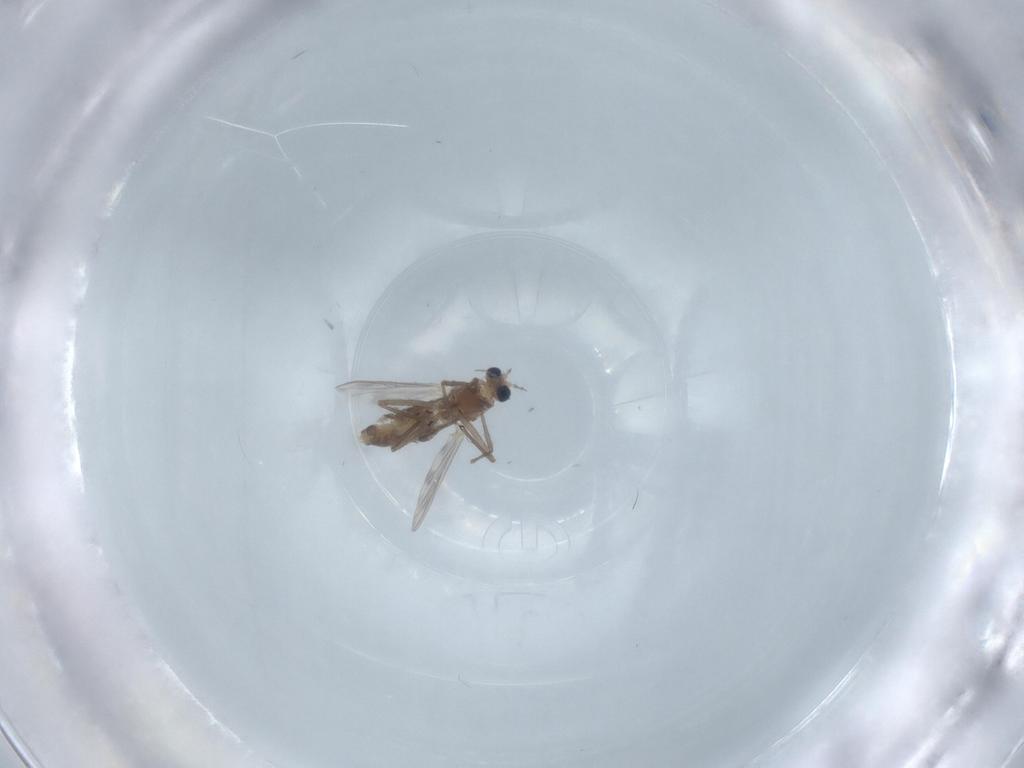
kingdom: Animalia
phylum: Arthropoda
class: Insecta
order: Diptera
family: Chironomidae
